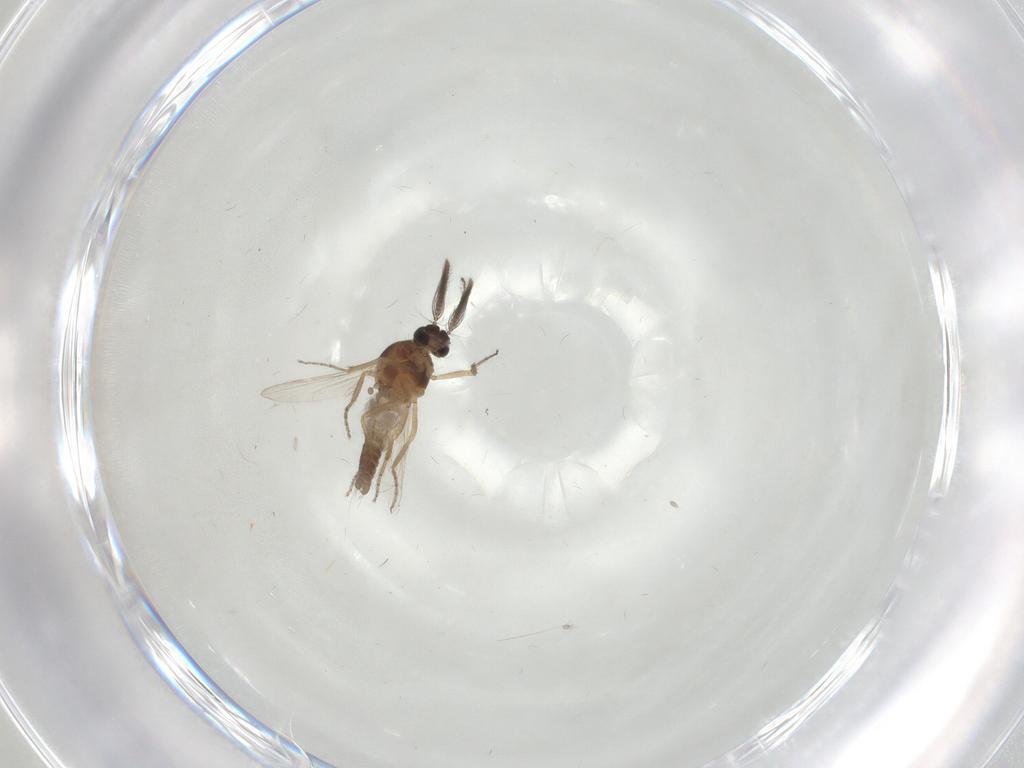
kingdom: Animalia
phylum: Arthropoda
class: Insecta
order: Diptera
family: Ceratopogonidae
